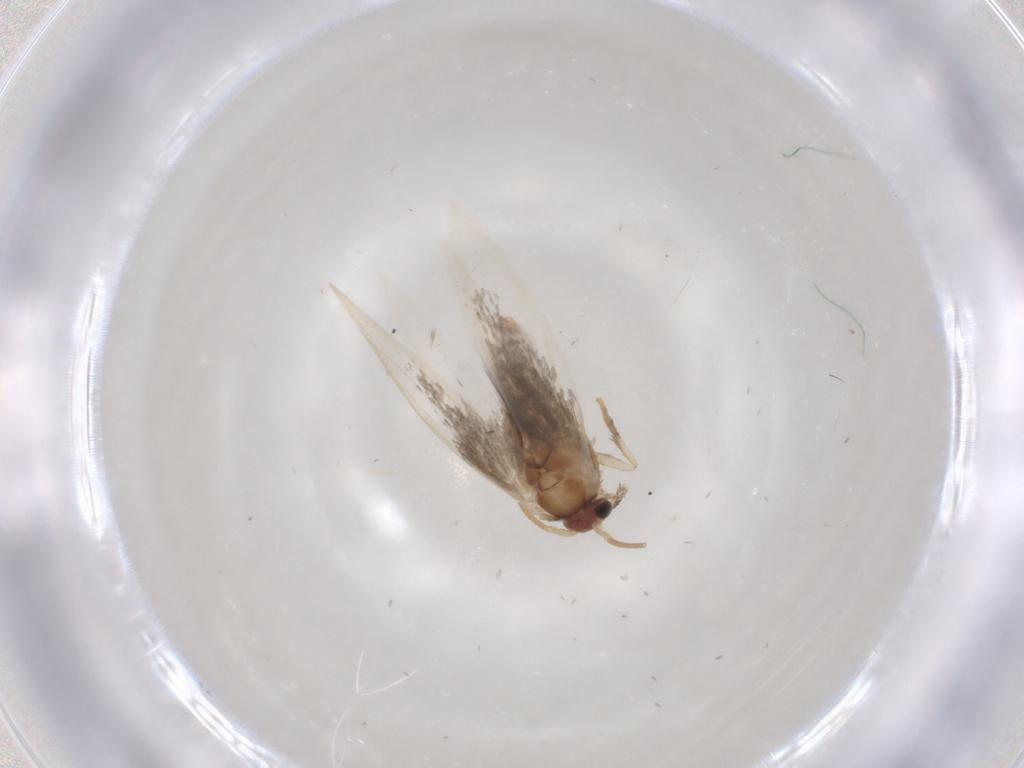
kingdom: Animalia
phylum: Arthropoda
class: Insecta
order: Lepidoptera
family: Nepticulidae
